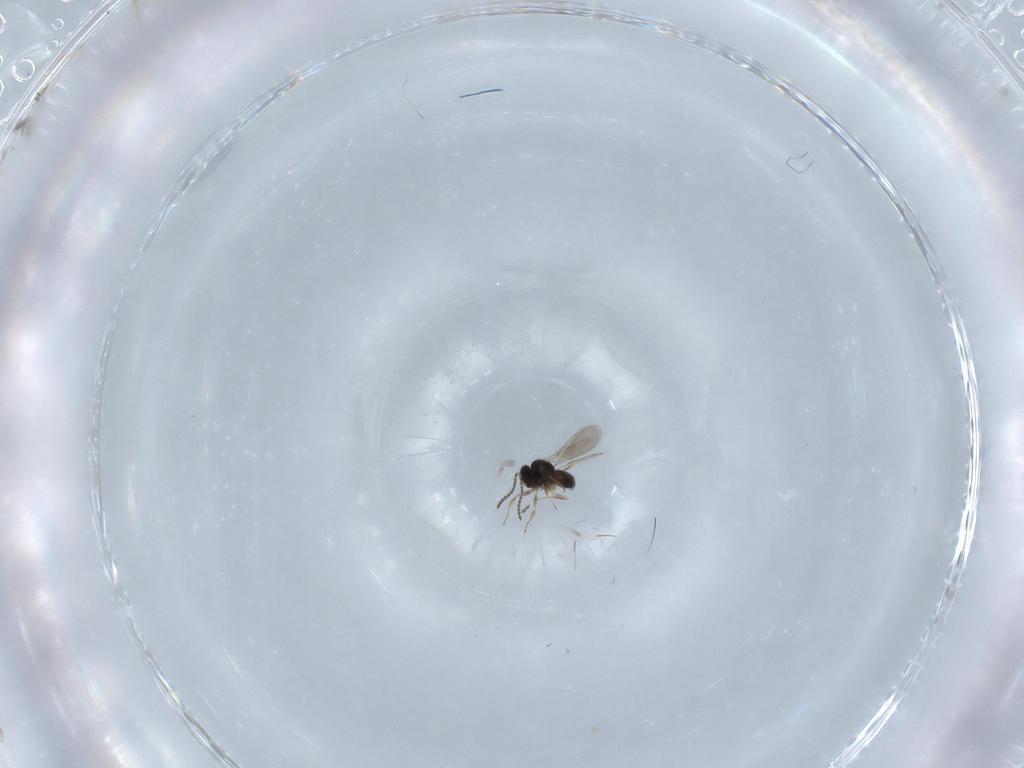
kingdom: Animalia
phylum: Arthropoda
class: Insecta
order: Hymenoptera
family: Scelionidae
